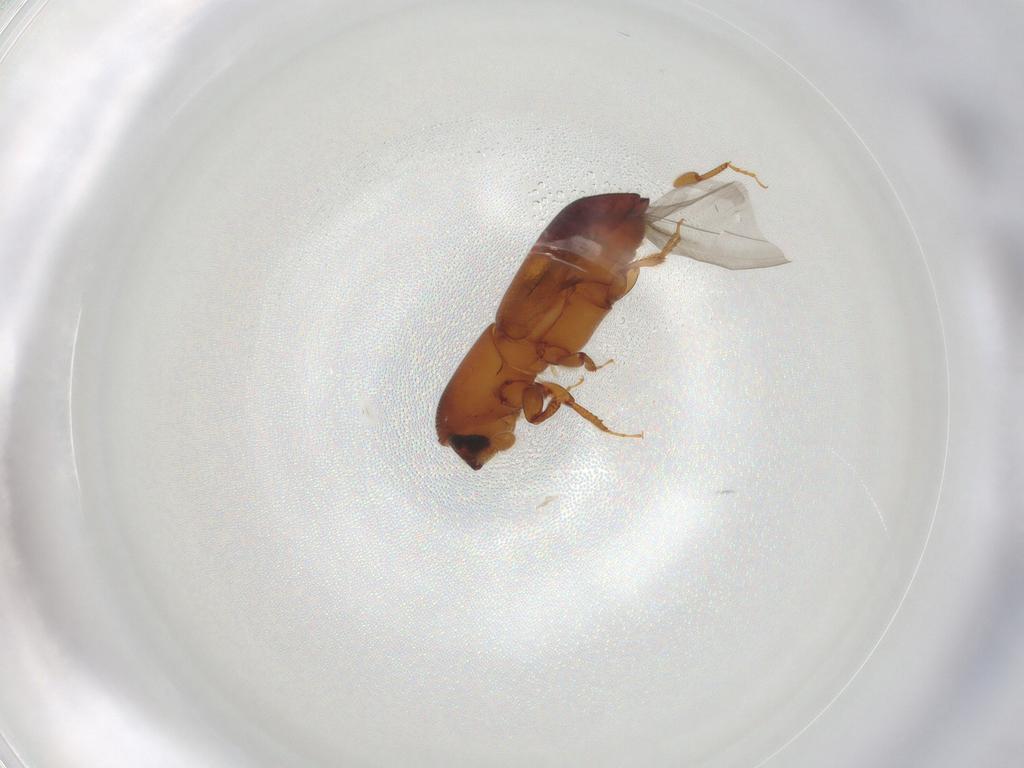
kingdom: Animalia
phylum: Arthropoda
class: Insecta
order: Coleoptera
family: Curculionidae
